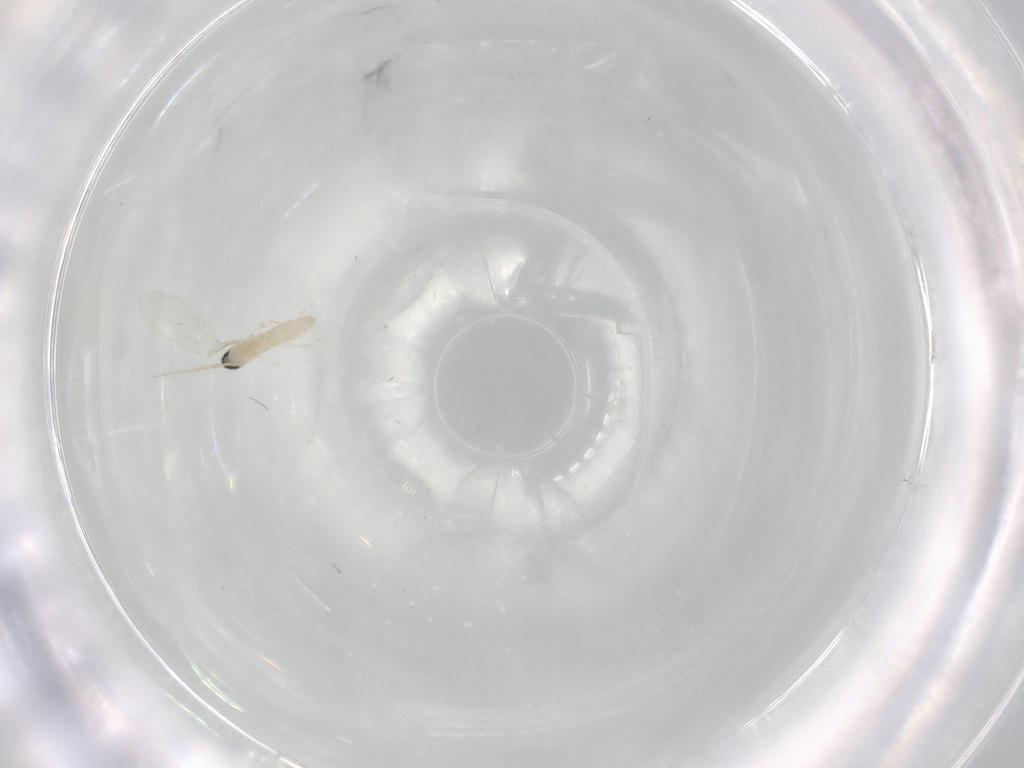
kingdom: Animalia
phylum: Arthropoda
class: Insecta
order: Diptera
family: Cecidomyiidae
